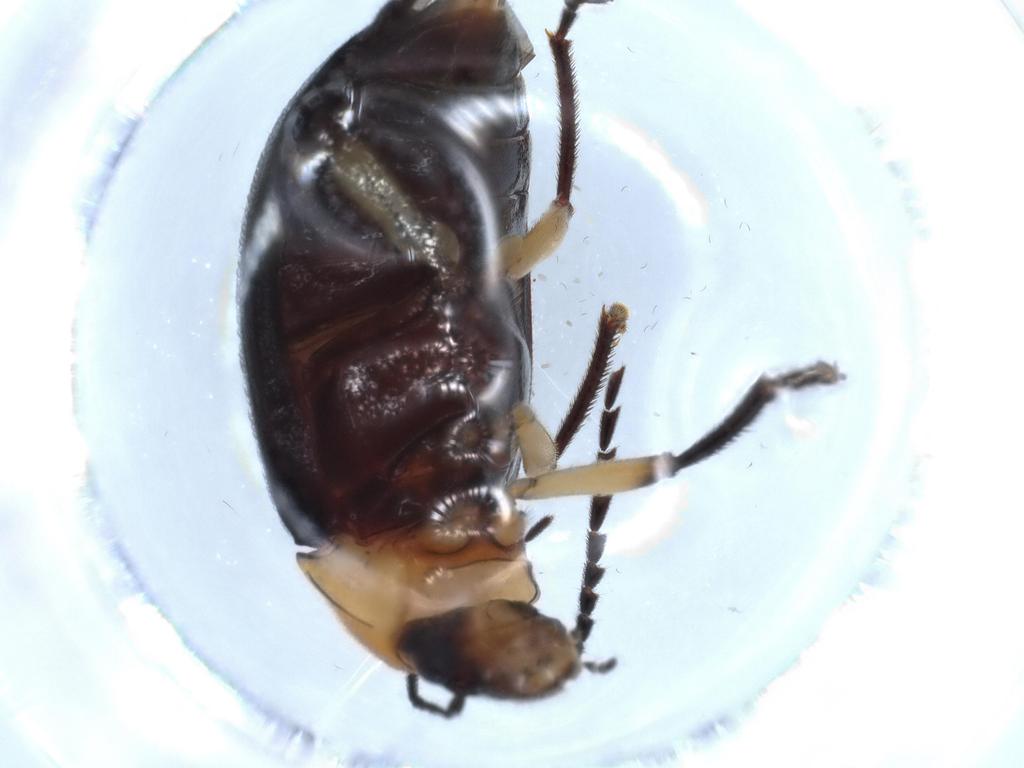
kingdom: Animalia
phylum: Arthropoda
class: Insecta
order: Coleoptera
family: Ptilodactylidae
